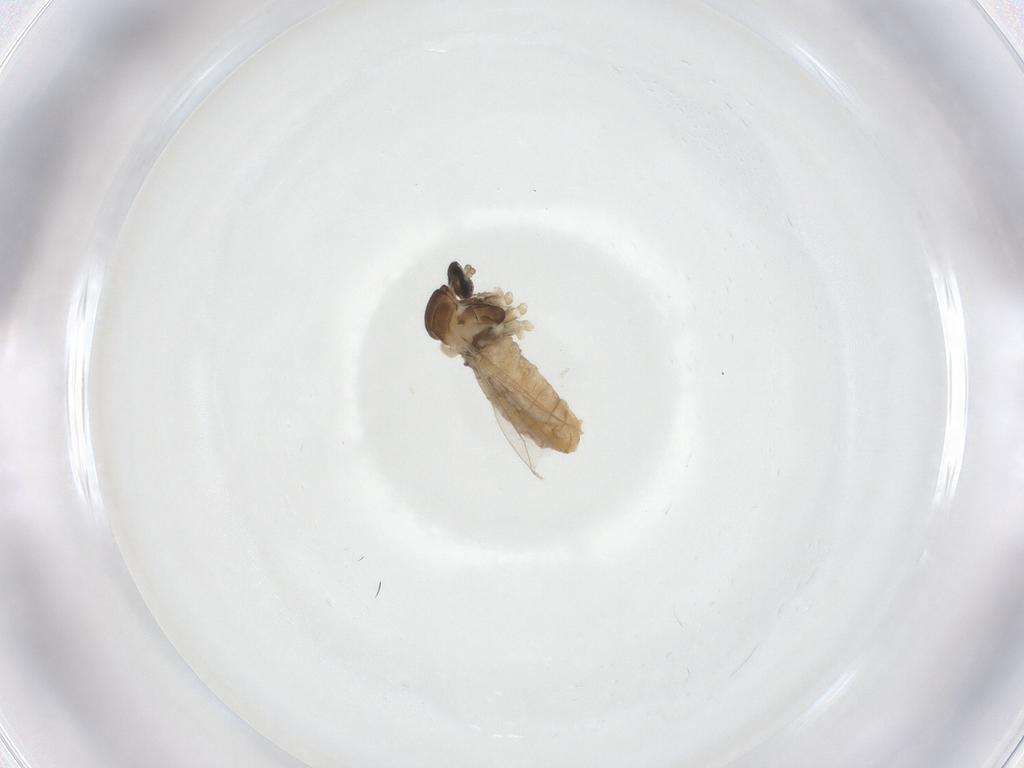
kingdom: Animalia
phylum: Arthropoda
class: Insecta
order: Diptera
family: Cecidomyiidae
